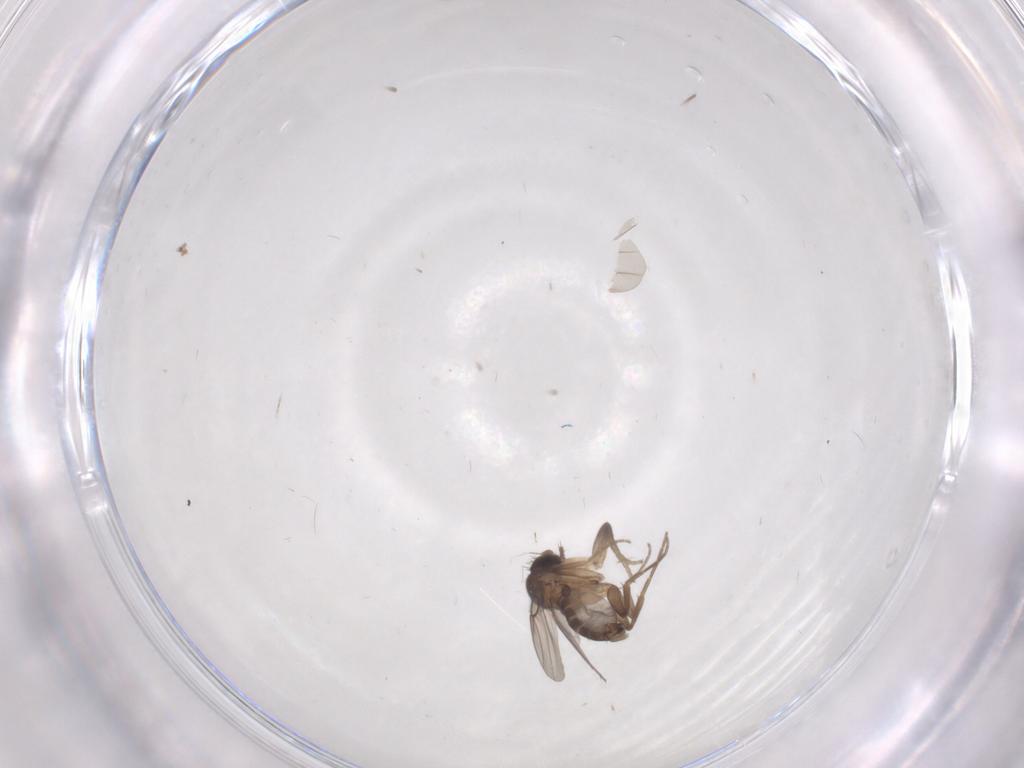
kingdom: Animalia
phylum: Arthropoda
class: Insecta
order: Diptera
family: Phoridae
